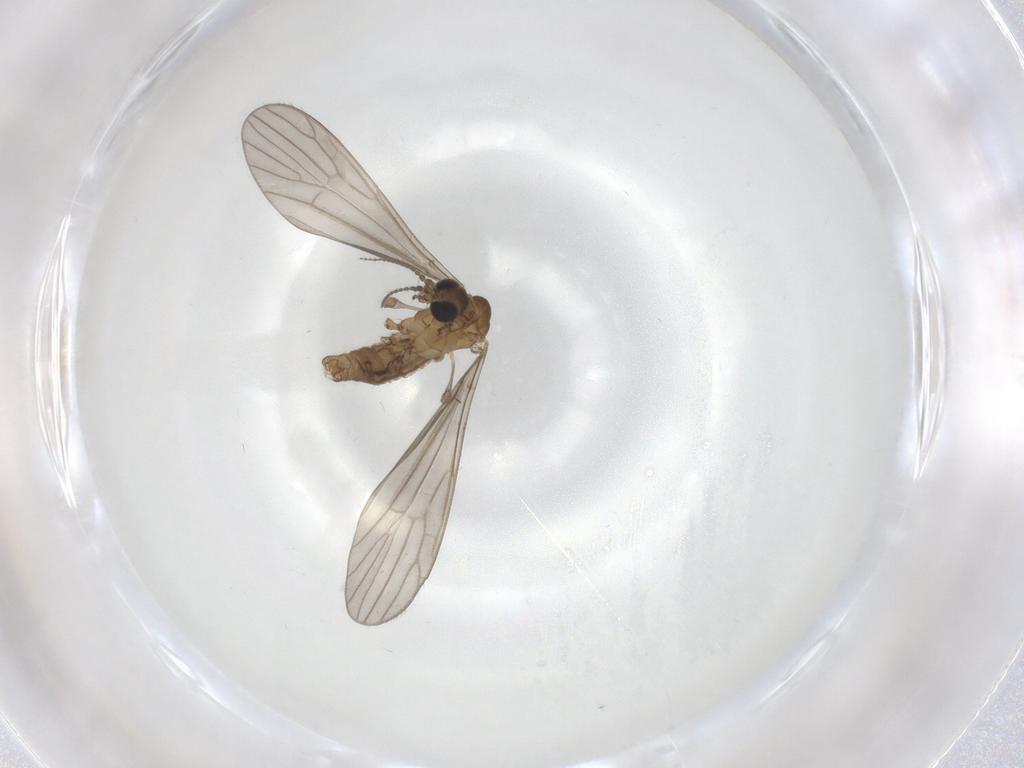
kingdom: Animalia
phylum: Arthropoda
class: Insecta
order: Diptera
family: Limoniidae
